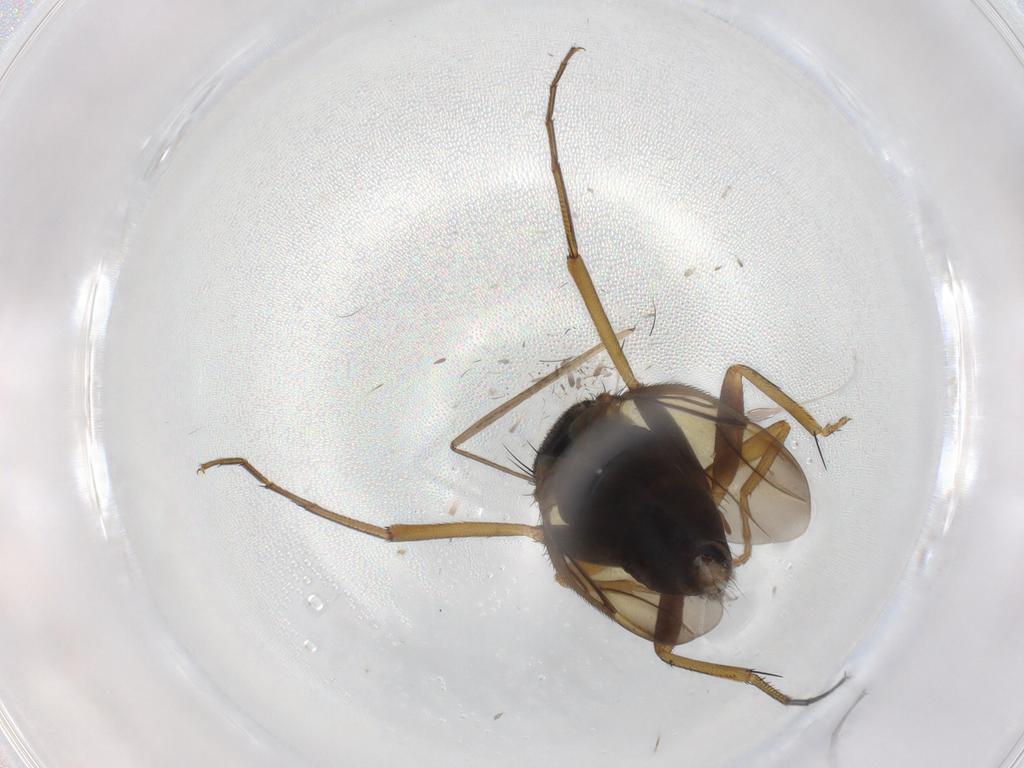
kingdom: Animalia
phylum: Arthropoda
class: Insecta
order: Diptera
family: Phoridae
